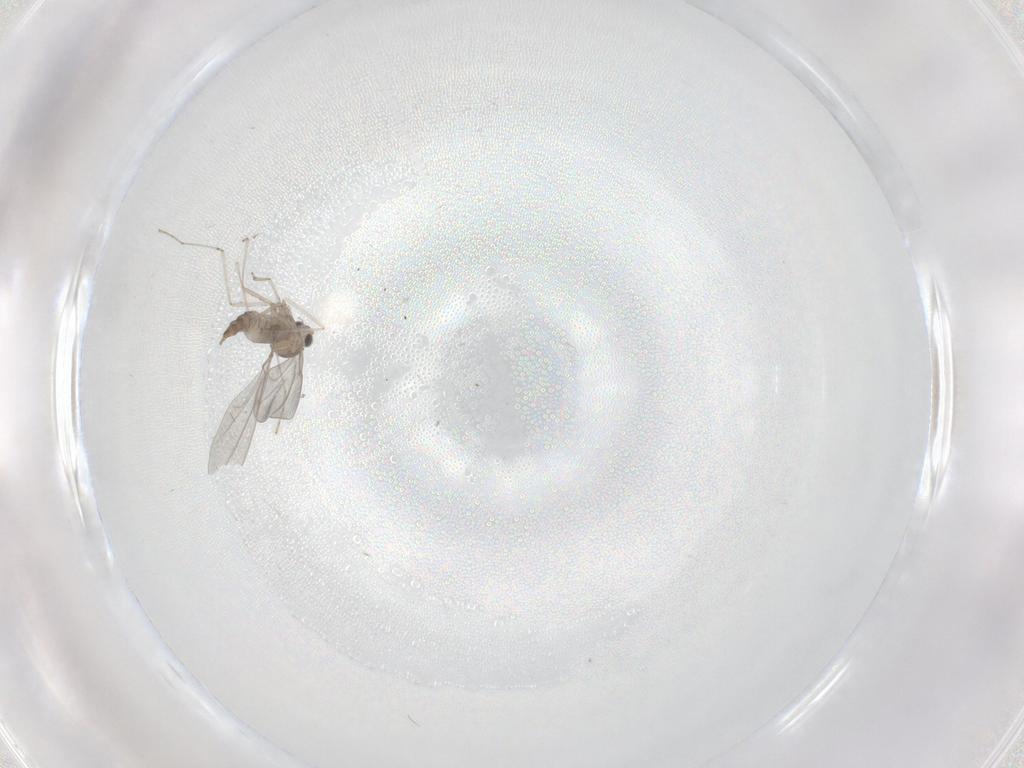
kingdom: Animalia
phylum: Arthropoda
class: Insecta
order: Diptera
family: Cecidomyiidae
